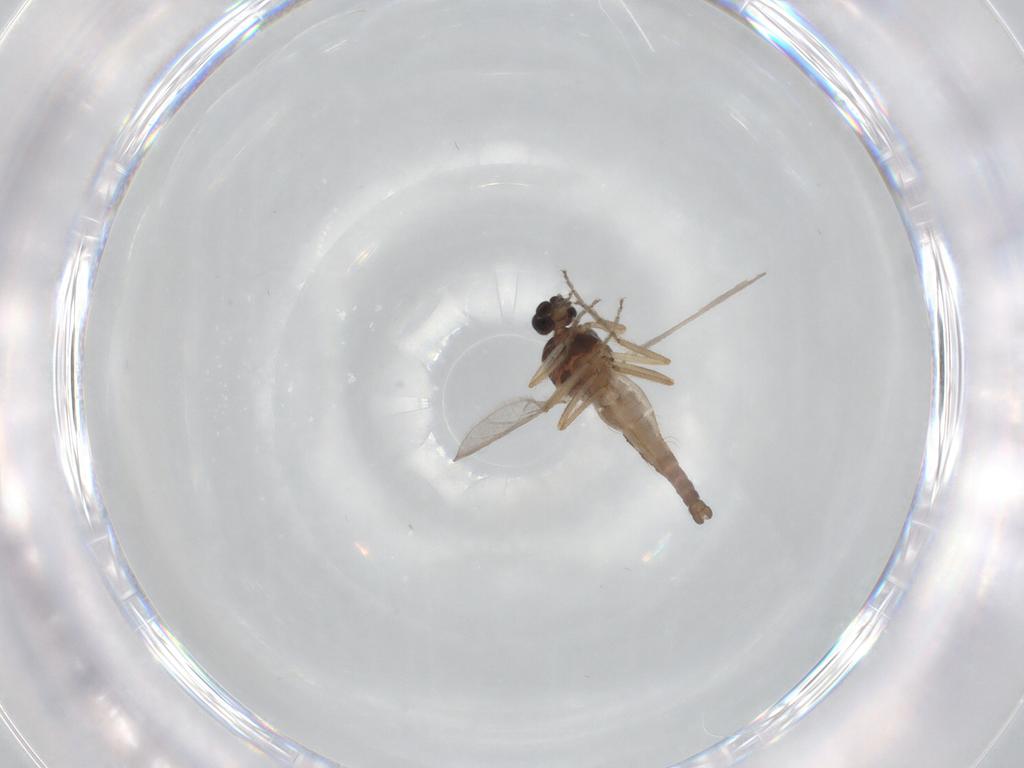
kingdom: Animalia
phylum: Arthropoda
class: Insecta
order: Diptera
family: Ceratopogonidae
